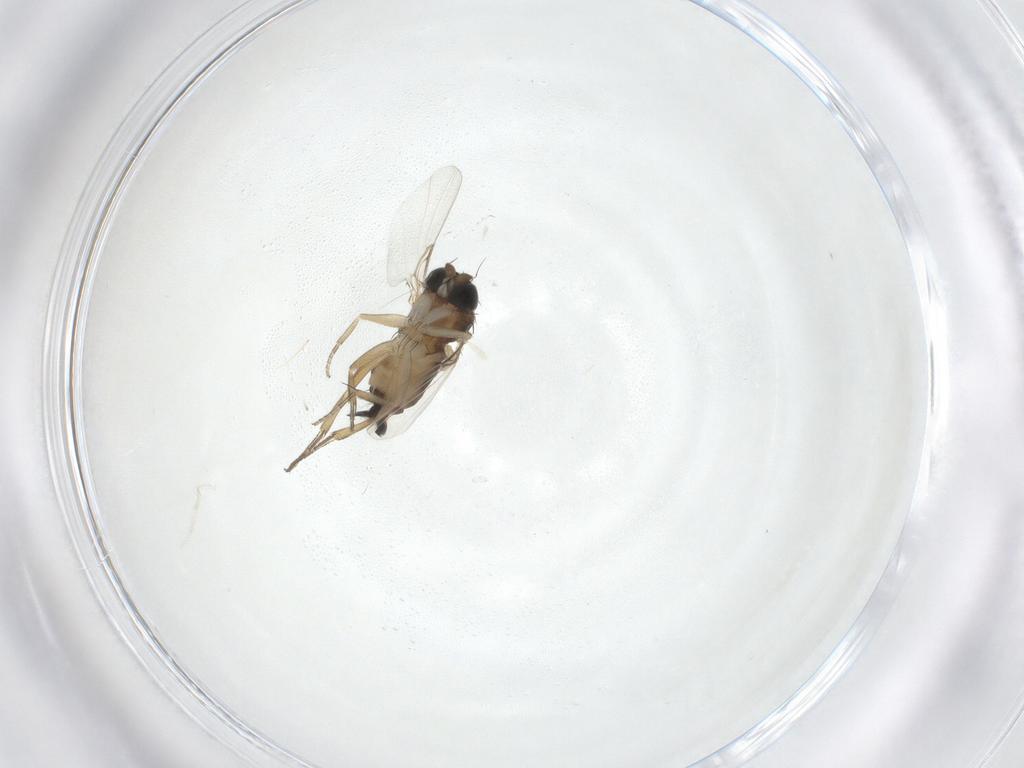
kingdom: Animalia
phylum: Arthropoda
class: Insecta
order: Diptera
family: Phoridae
